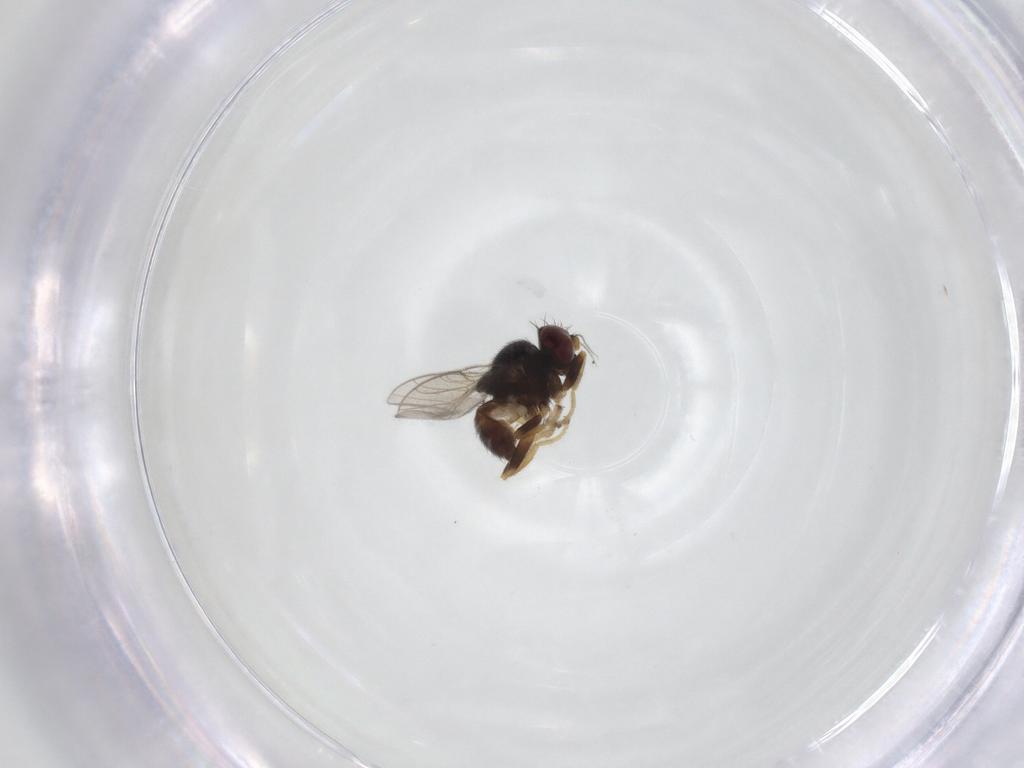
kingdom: Animalia
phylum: Arthropoda
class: Insecta
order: Diptera
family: Chloropidae
